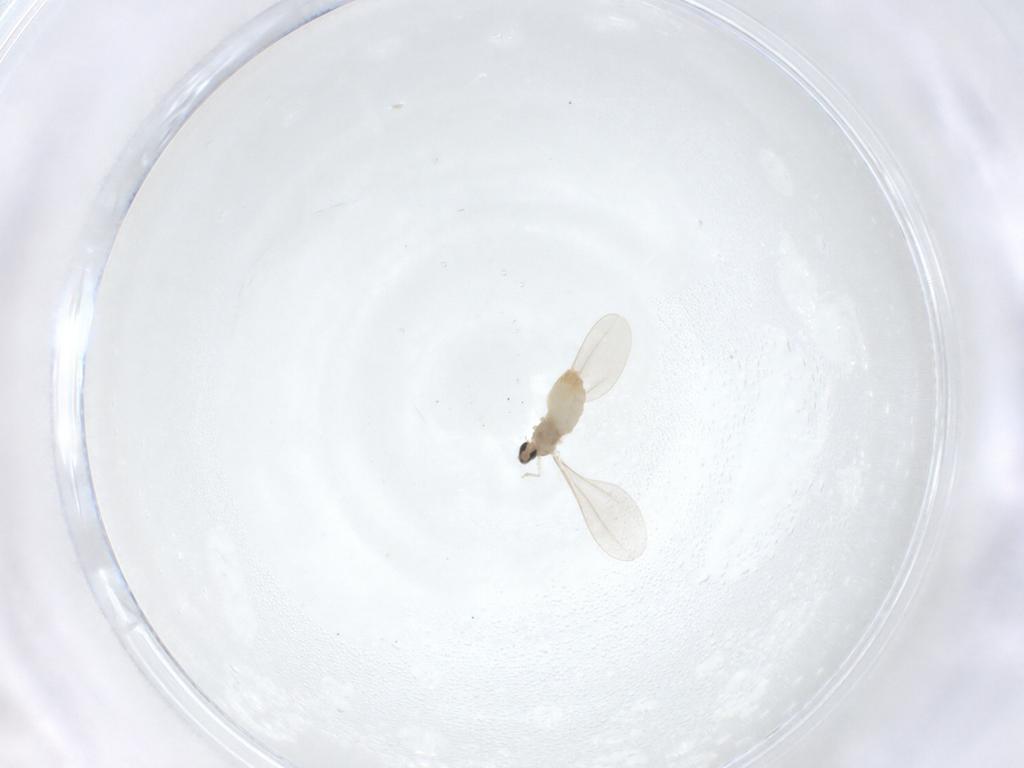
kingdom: Animalia
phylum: Arthropoda
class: Insecta
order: Diptera
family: Cecidomyiidae
